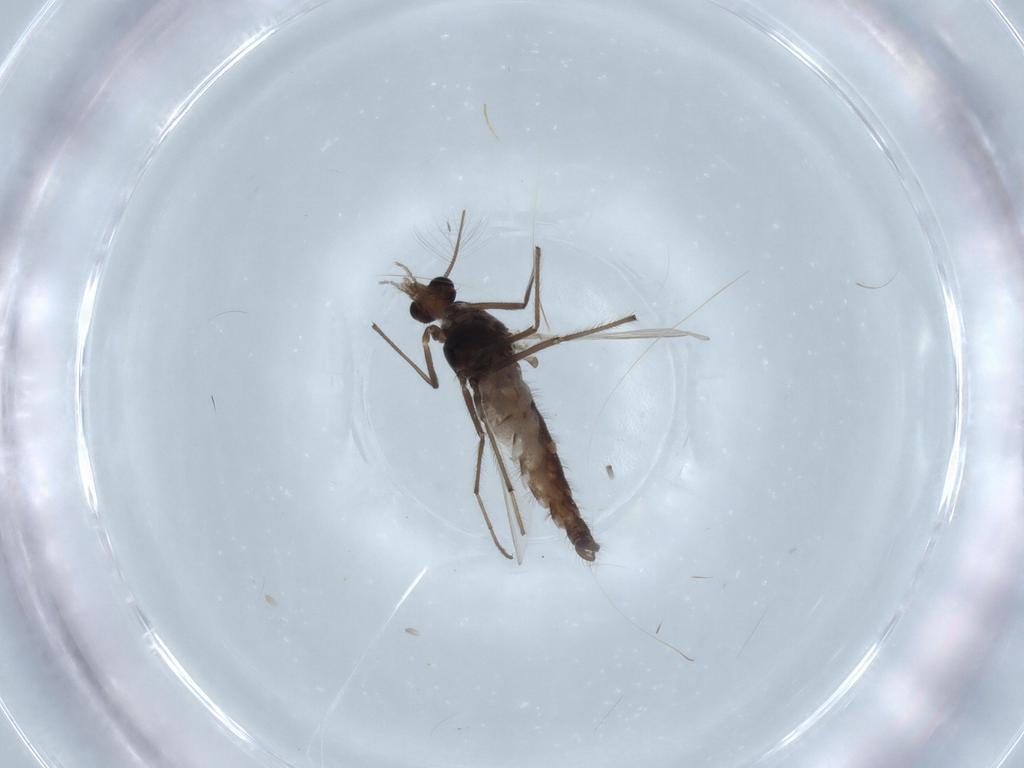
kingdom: Animalia
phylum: Arthropoda
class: Insecta
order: Diptera
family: Chironomidae
